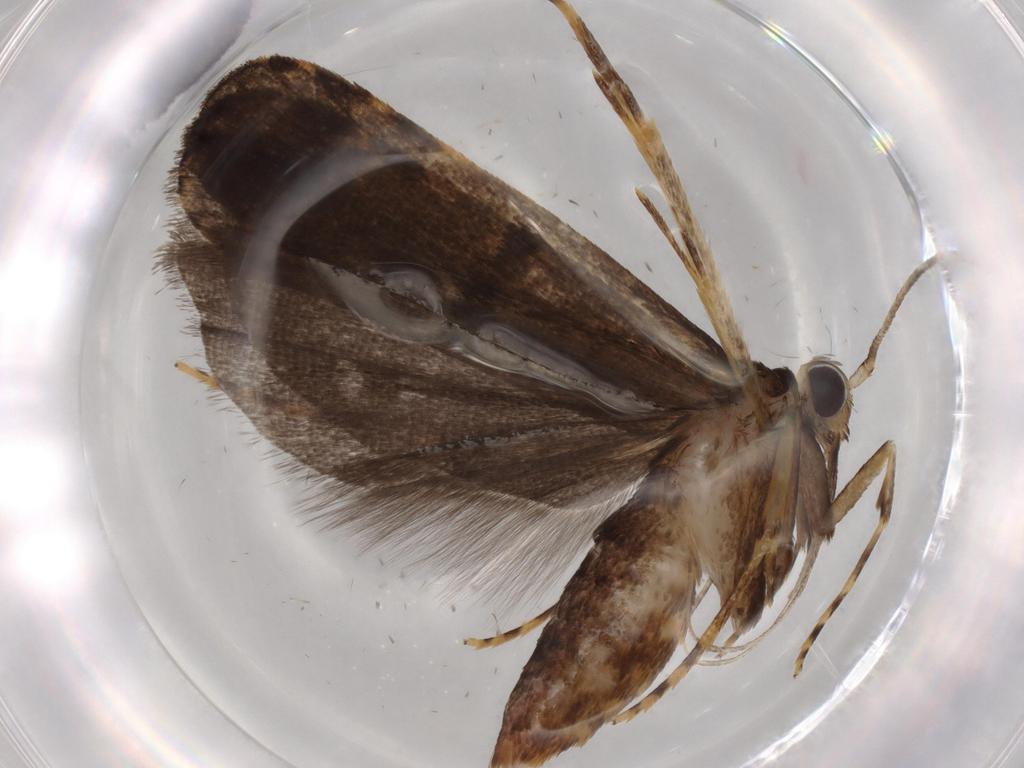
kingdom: Animalia
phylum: Arthropoda
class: Insecta
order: Lepidoptera
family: Autostichidae
